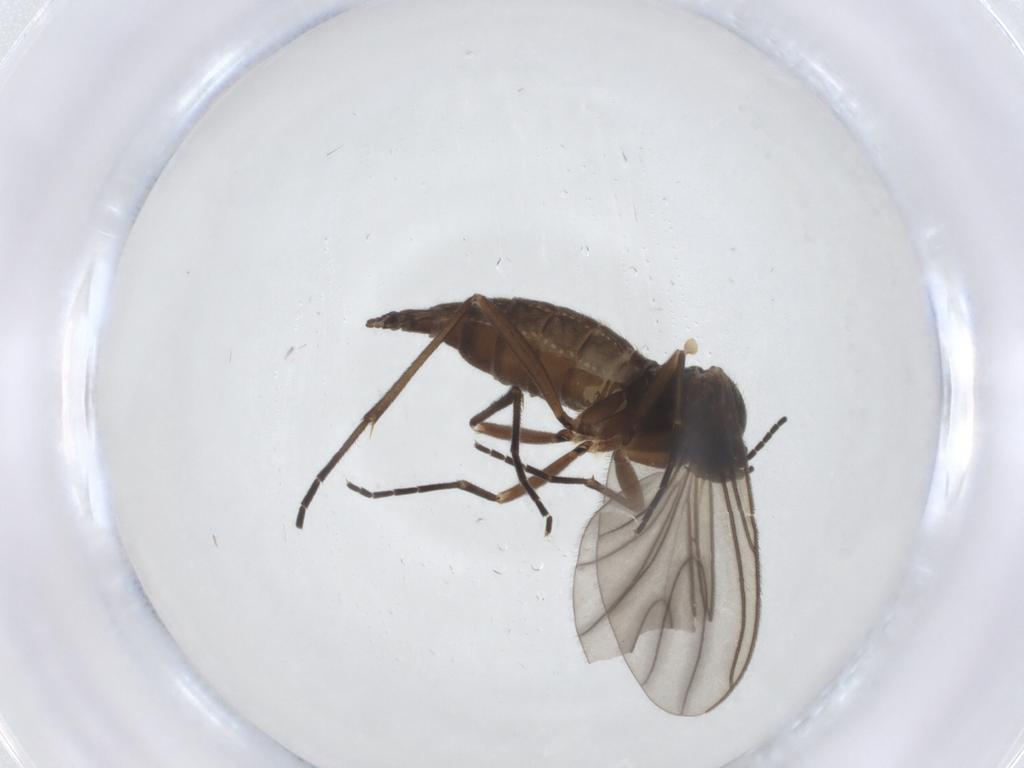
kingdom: Animalia
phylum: Arthropoda
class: Insecta
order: Diptera
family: Sciaridae
